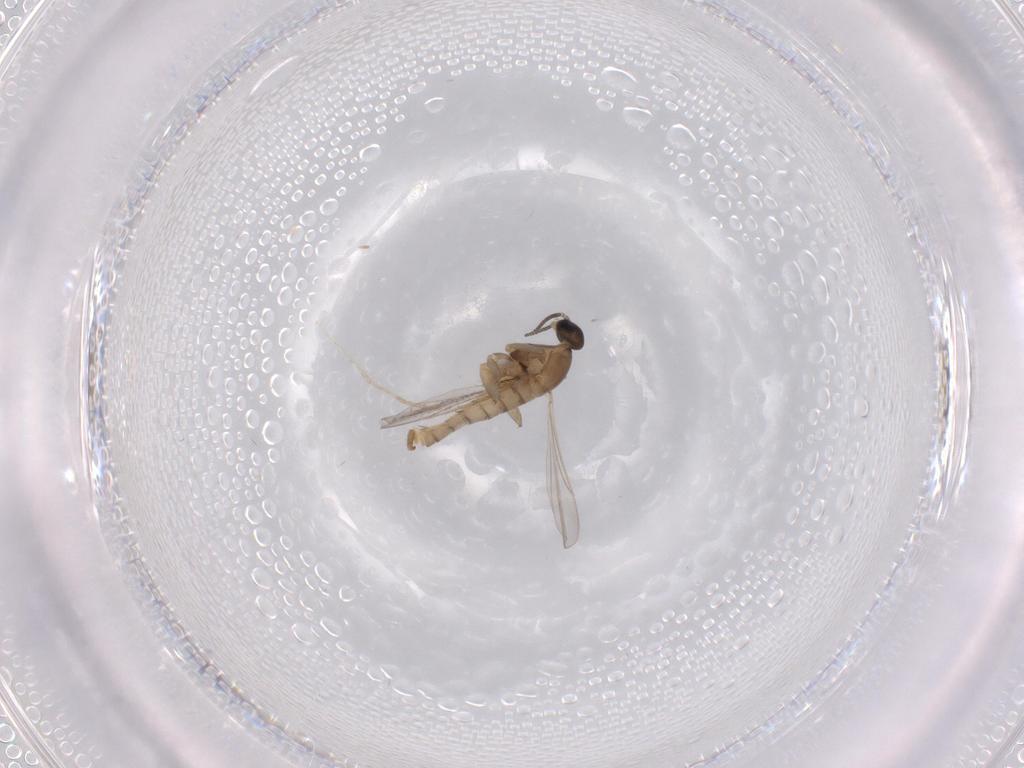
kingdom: Animalia
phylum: Arthropoda
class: Insecta
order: Diptera
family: Cecidomyiidae
